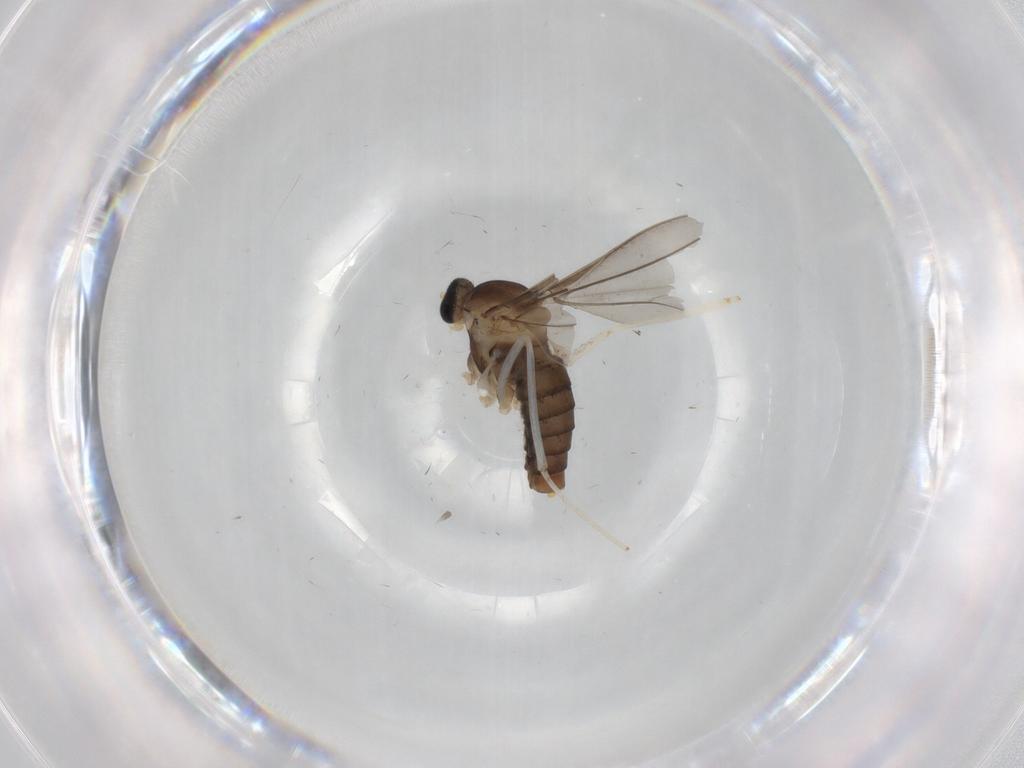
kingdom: Animalia
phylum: Arthropoda
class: Insecta
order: Diptera
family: Cecidomyiidae
